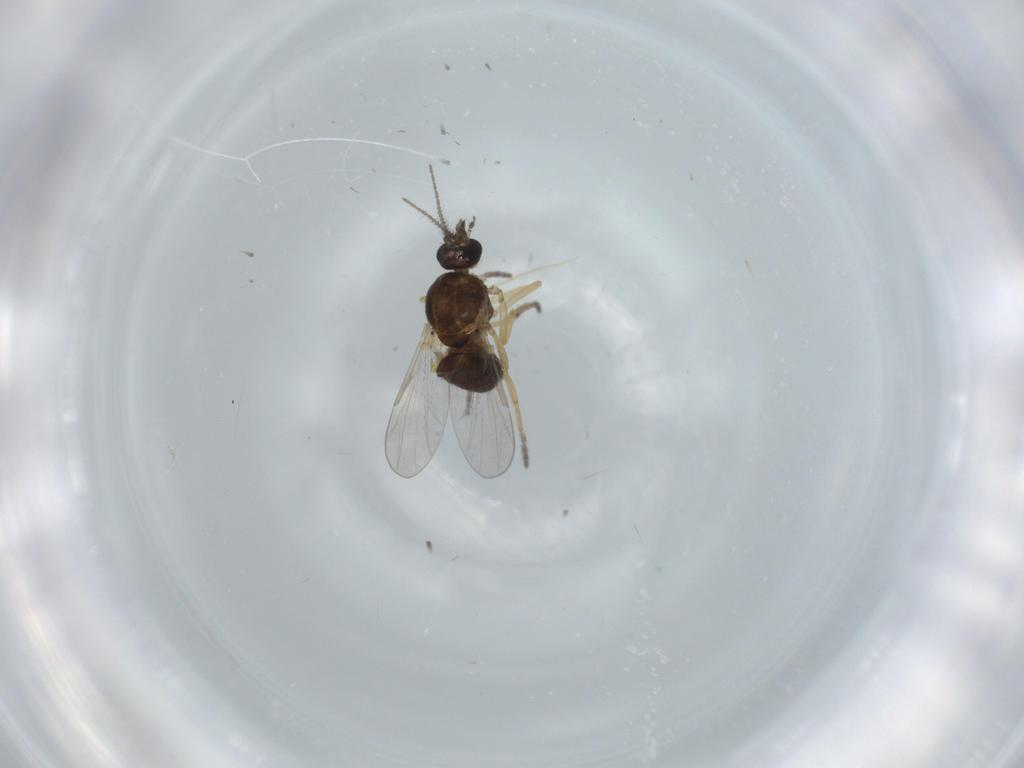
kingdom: Animalia
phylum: Arthropoda
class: Insecta
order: Diptera
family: Ceratopogonidae
